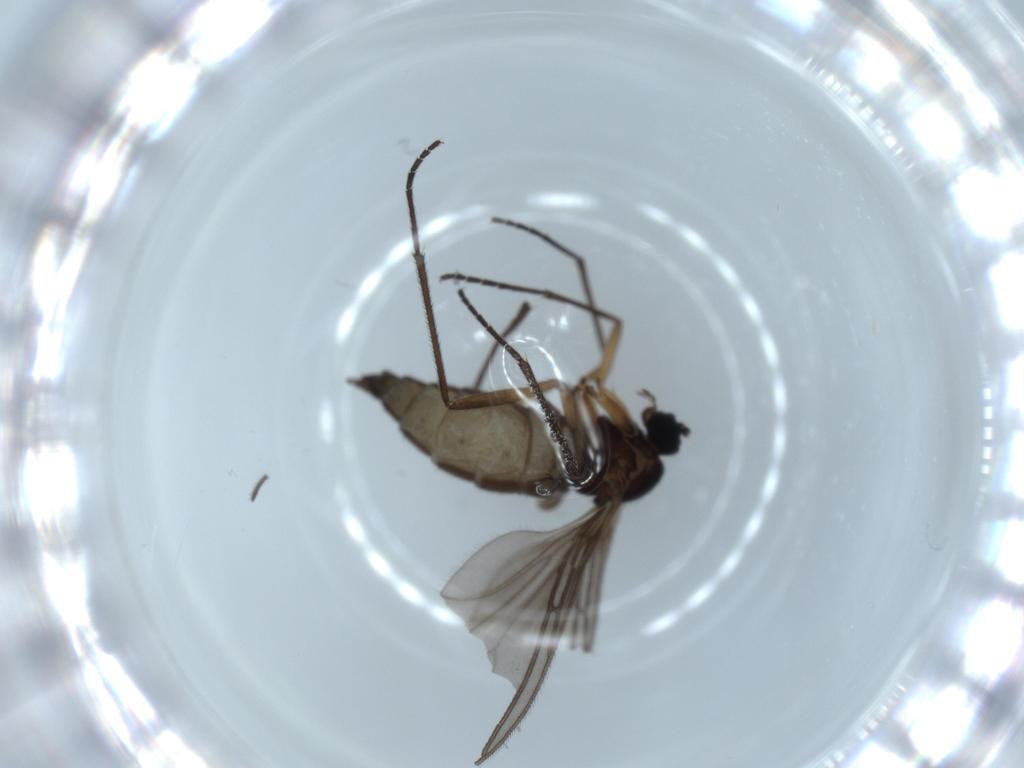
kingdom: Animalia
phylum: Arthropoda
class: Insecta
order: Diptera
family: Sciaridae
